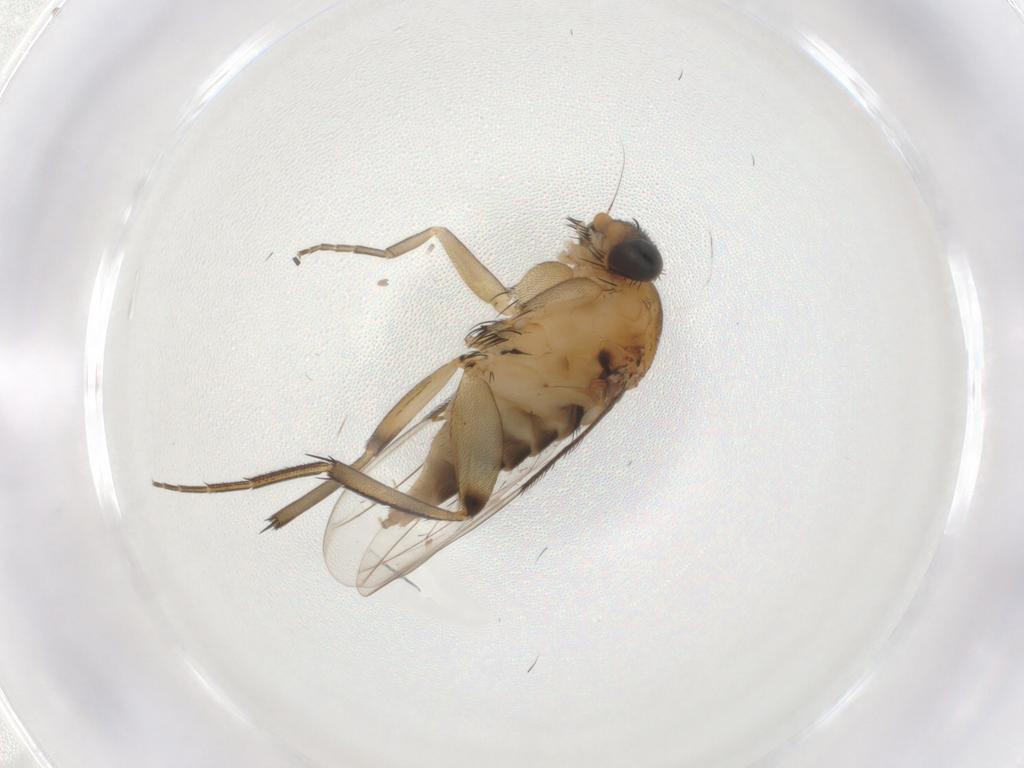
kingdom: Animalia
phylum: Arthropoda
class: Insecta
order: Diptera
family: Phoridae
